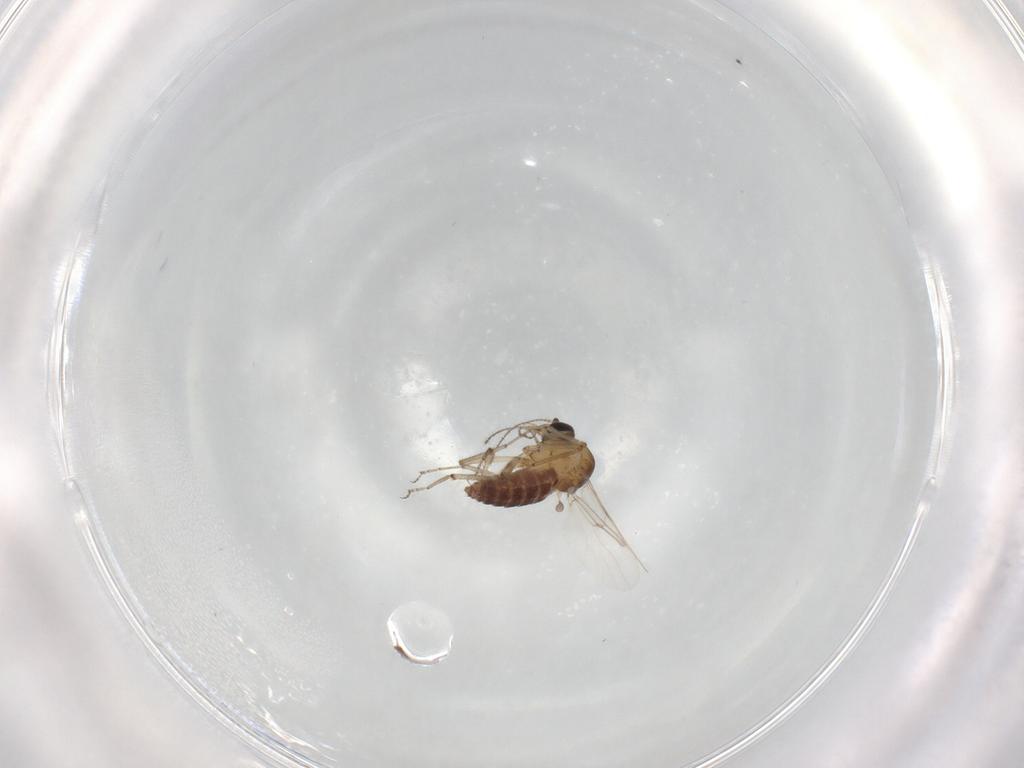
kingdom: Animalia
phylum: Arthropoda
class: Insecta
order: Diptera
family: Ceratopogonidae
